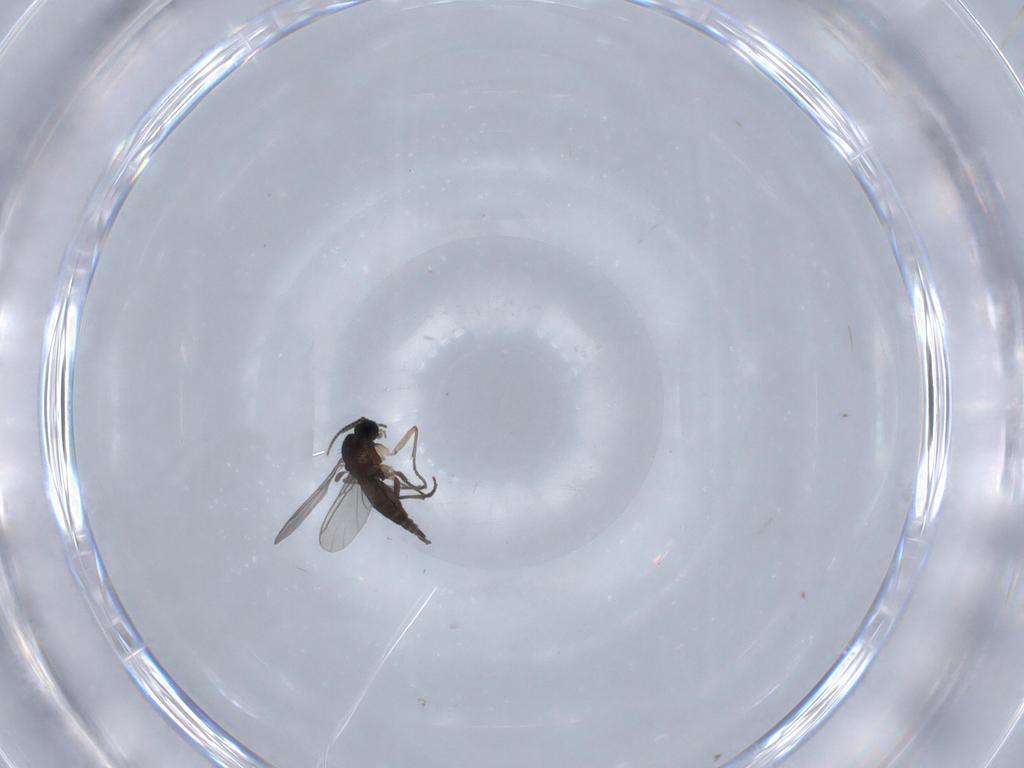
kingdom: Animalia
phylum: Arthropoda
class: Insecta
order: Diptera
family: Sciaridae
